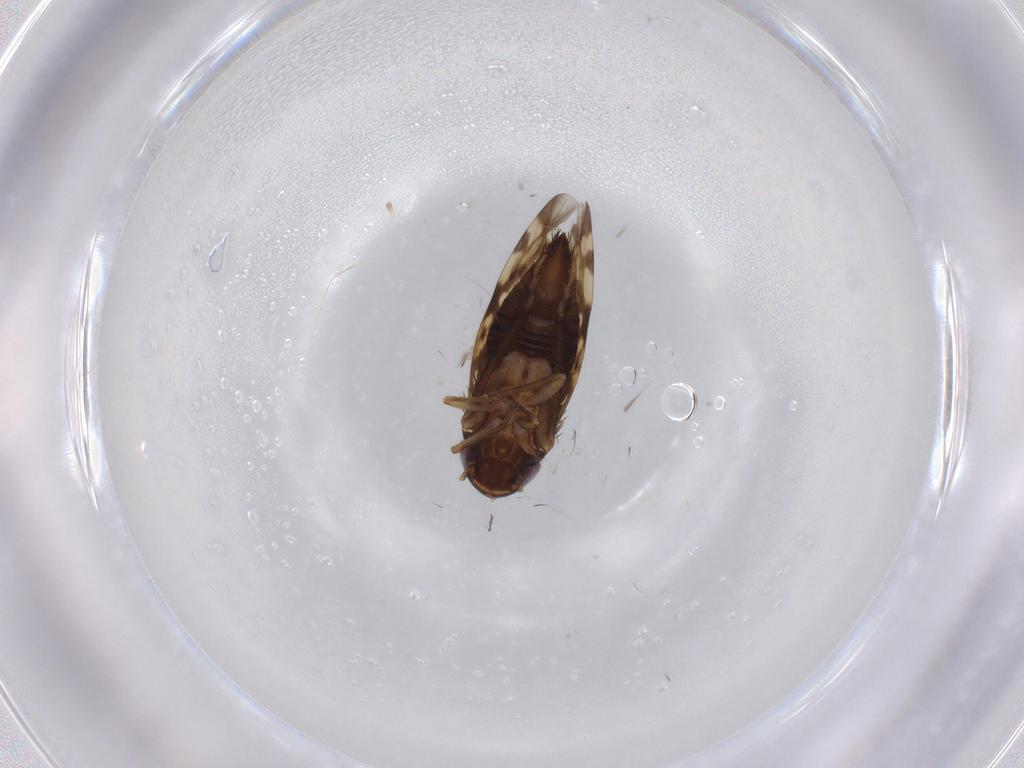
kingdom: Animalia
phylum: Arthropoda
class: Insecta
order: Hemiptera
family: Cicadellidae
